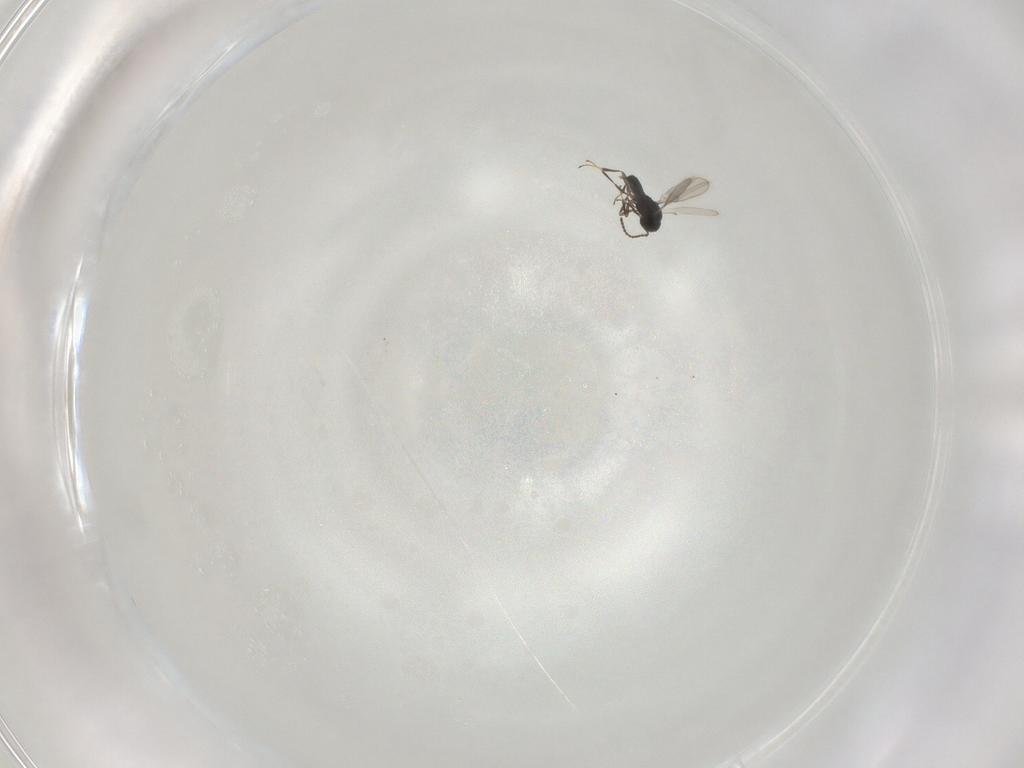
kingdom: Animalia
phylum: Arthropoda
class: Insecta
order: Hymenoptera
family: Scelionidae
